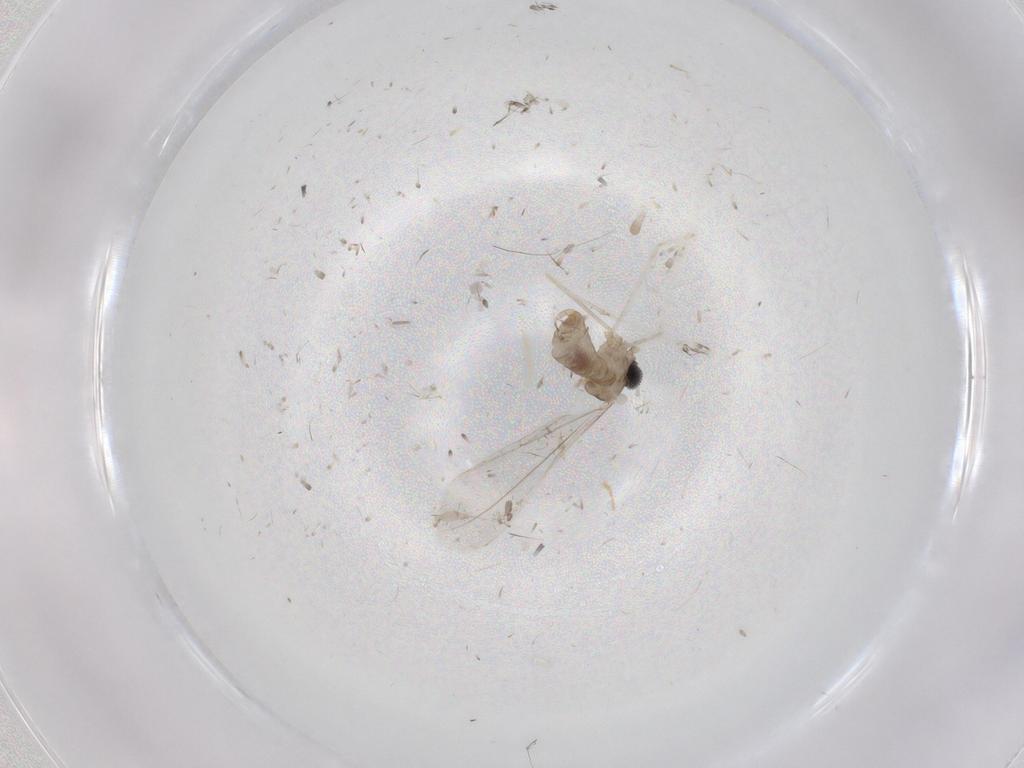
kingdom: Animalia
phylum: Arthropoda
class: Insecta
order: Diptera
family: Cecidomyiidae
